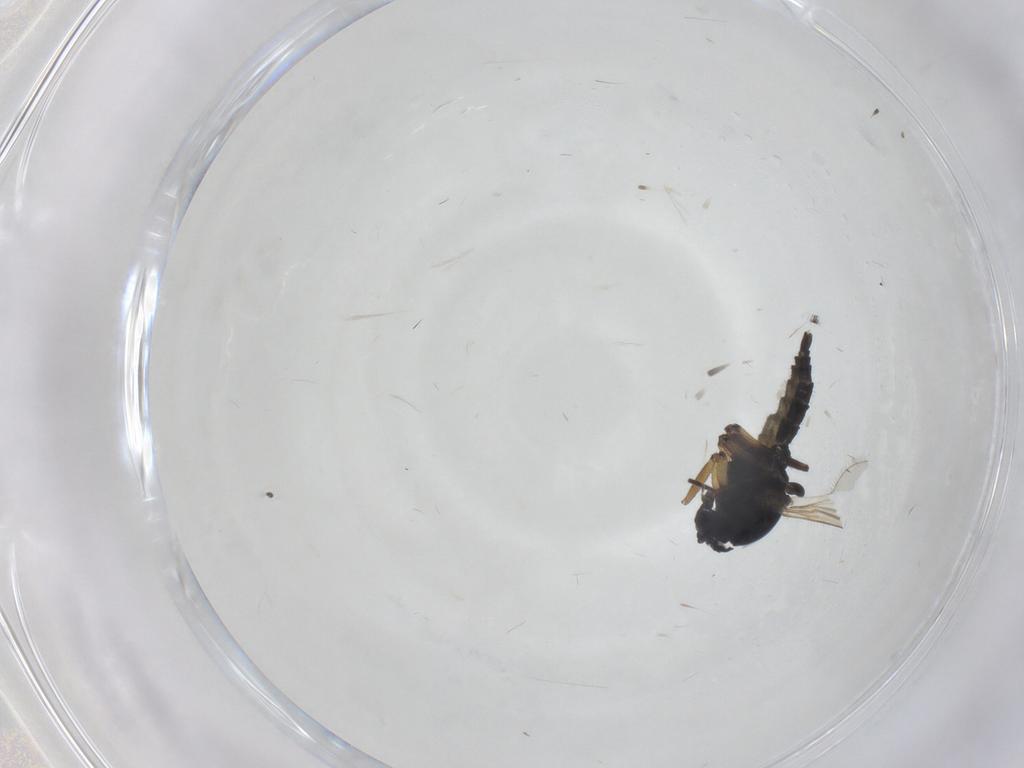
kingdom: Animalia
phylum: Arthropoda
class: Insecta
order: Diptera
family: Sciaridae
